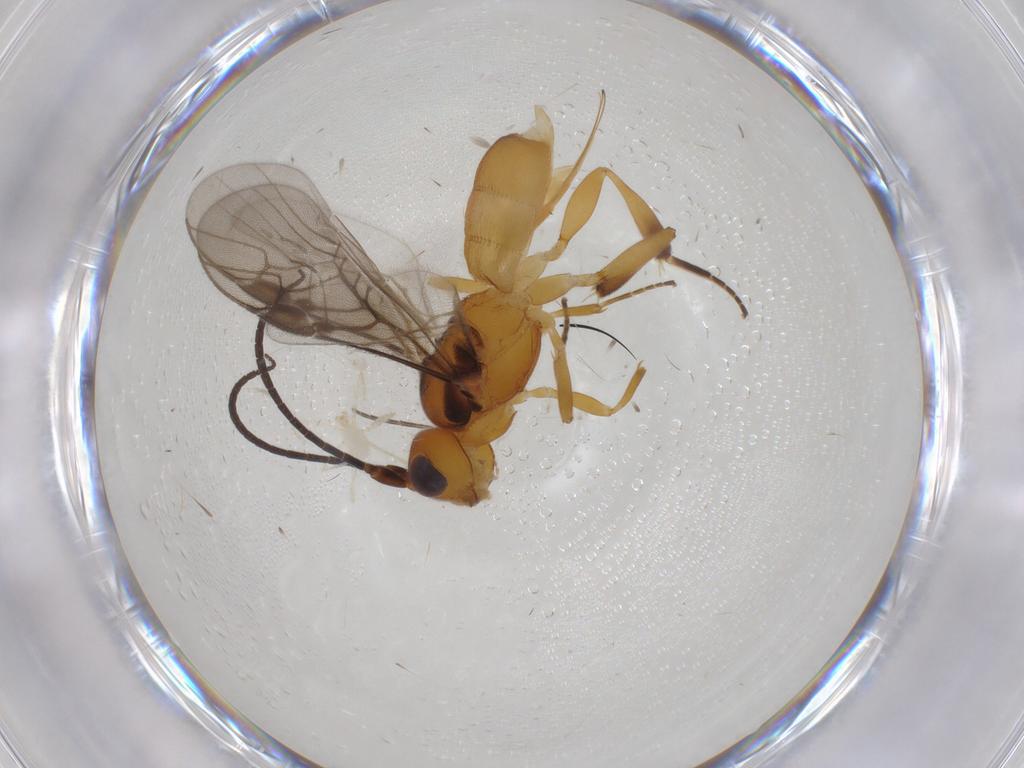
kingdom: Animalia
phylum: Arthropoda
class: Insecta
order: Hymenoptera
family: Braconidae
